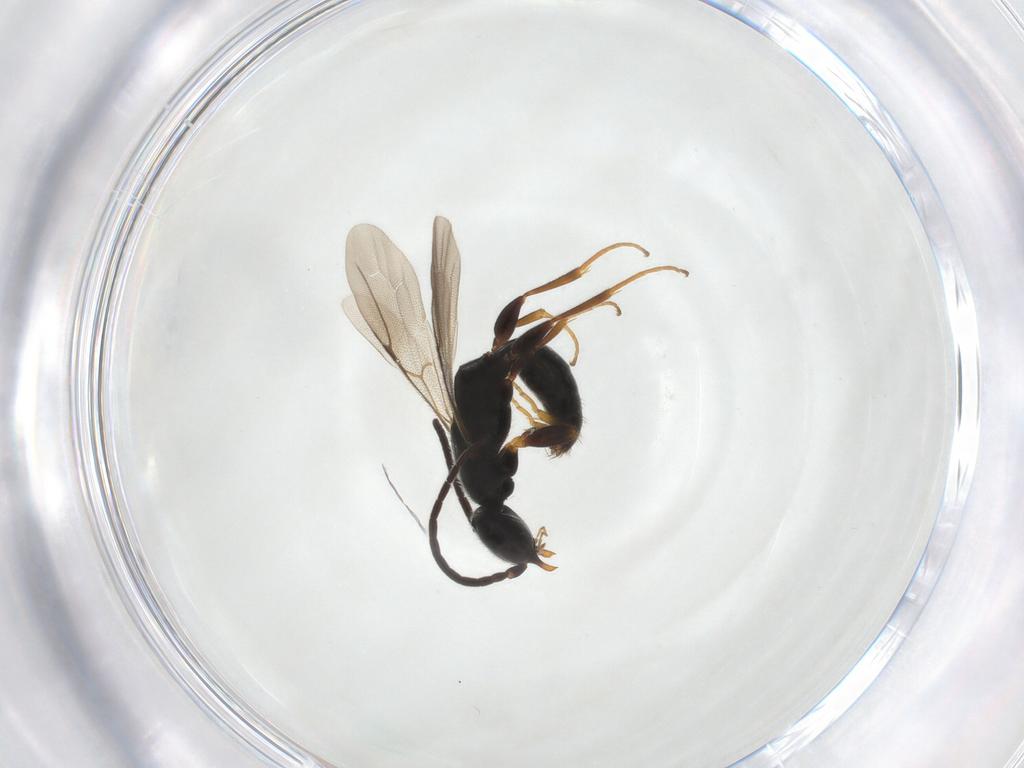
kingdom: Animalia
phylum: Arthropoda
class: Insecta
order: Hymenoptera
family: Bethylidae
